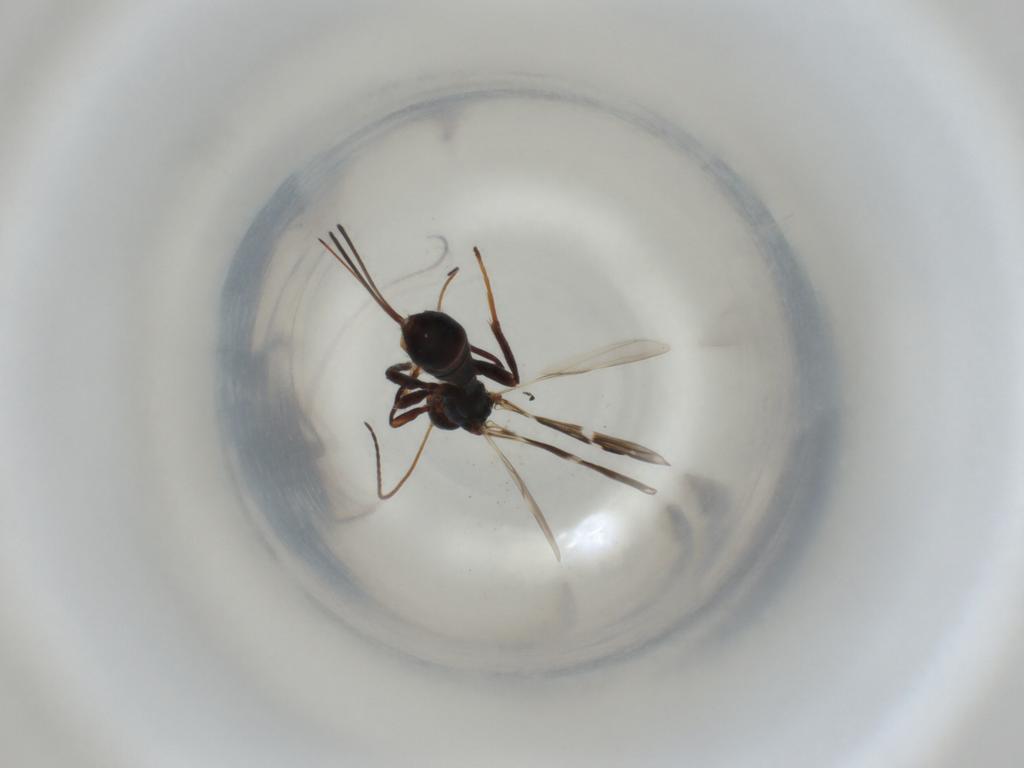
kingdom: Animalia
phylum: Arthropoda
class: Insecta
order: Hymenoptera
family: Braconidae
